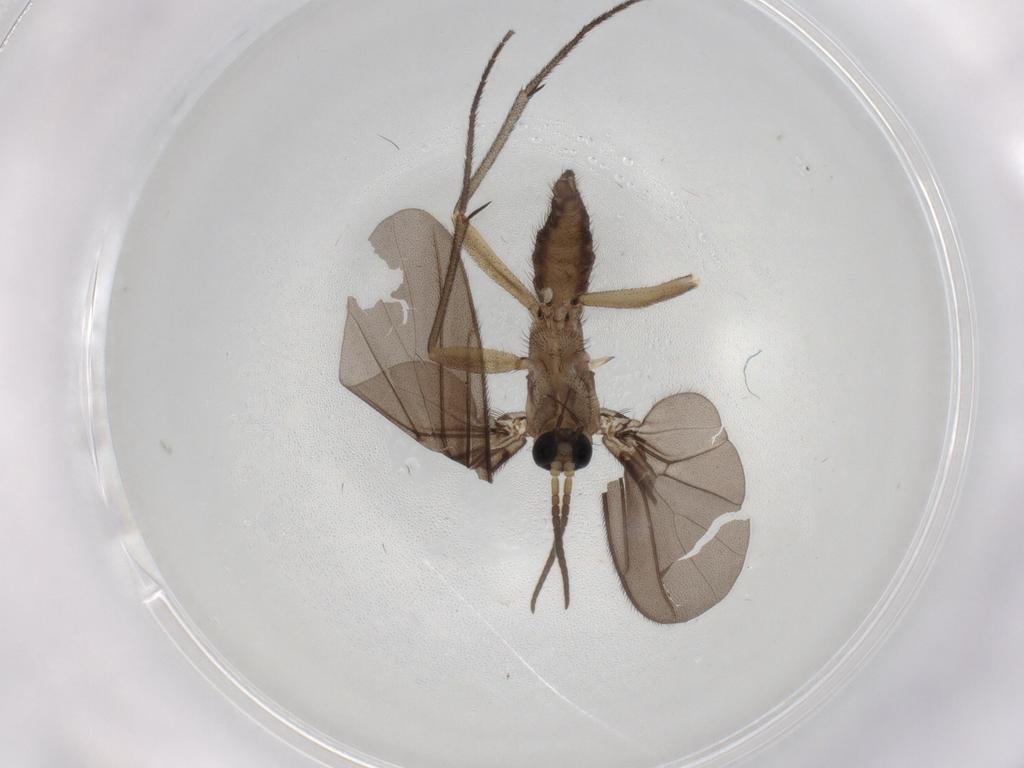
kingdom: Animalia
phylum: Arthropoda
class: Insecta
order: Diptera
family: Mycetophilidae
